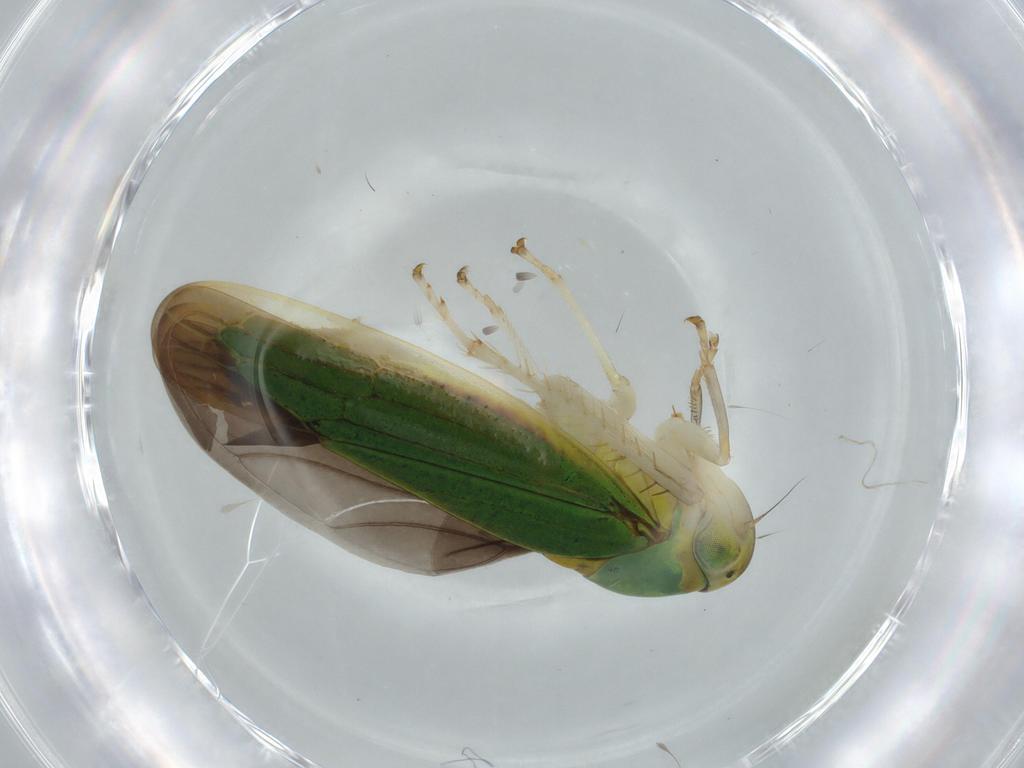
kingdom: Animalia
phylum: Arthropoda
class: Insecta
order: Hemiptera
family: Cicadellidae
